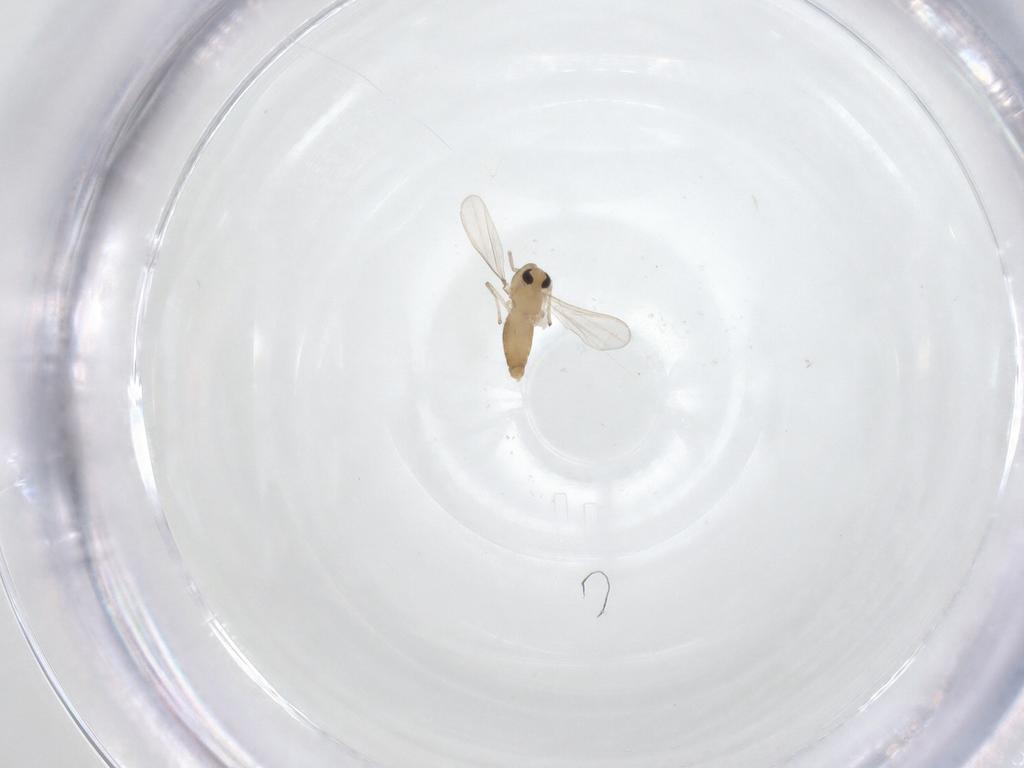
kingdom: Animalia
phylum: Arthropoda
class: Insecta
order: Diptera
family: Chironomidae
